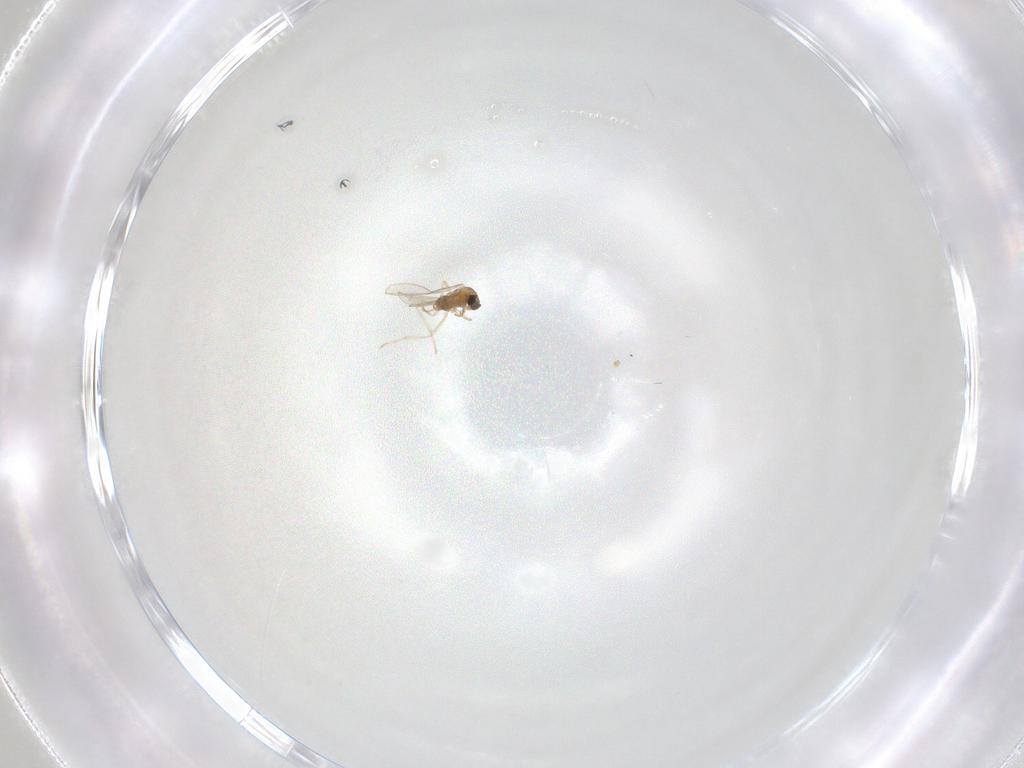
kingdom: Animalia
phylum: Arthropoda
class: Insecta
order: Diptera
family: Cecidomyiidae
